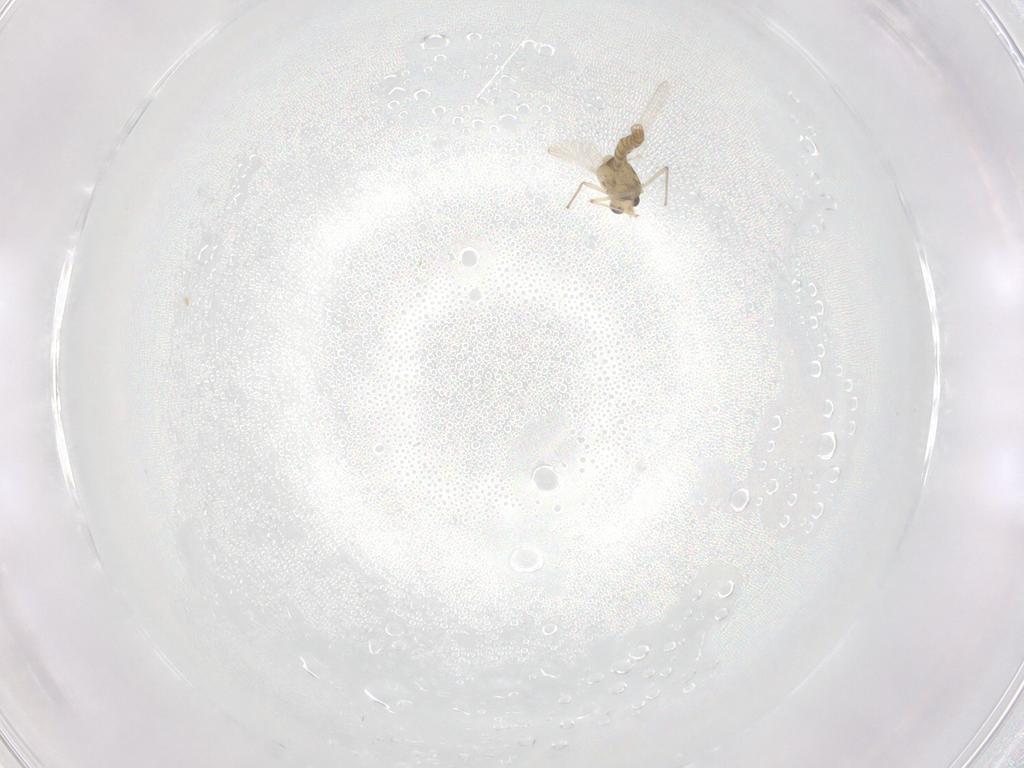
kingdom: Animalia
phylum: Arthropoda
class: Insecta
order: Diptera
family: Chironomidae
